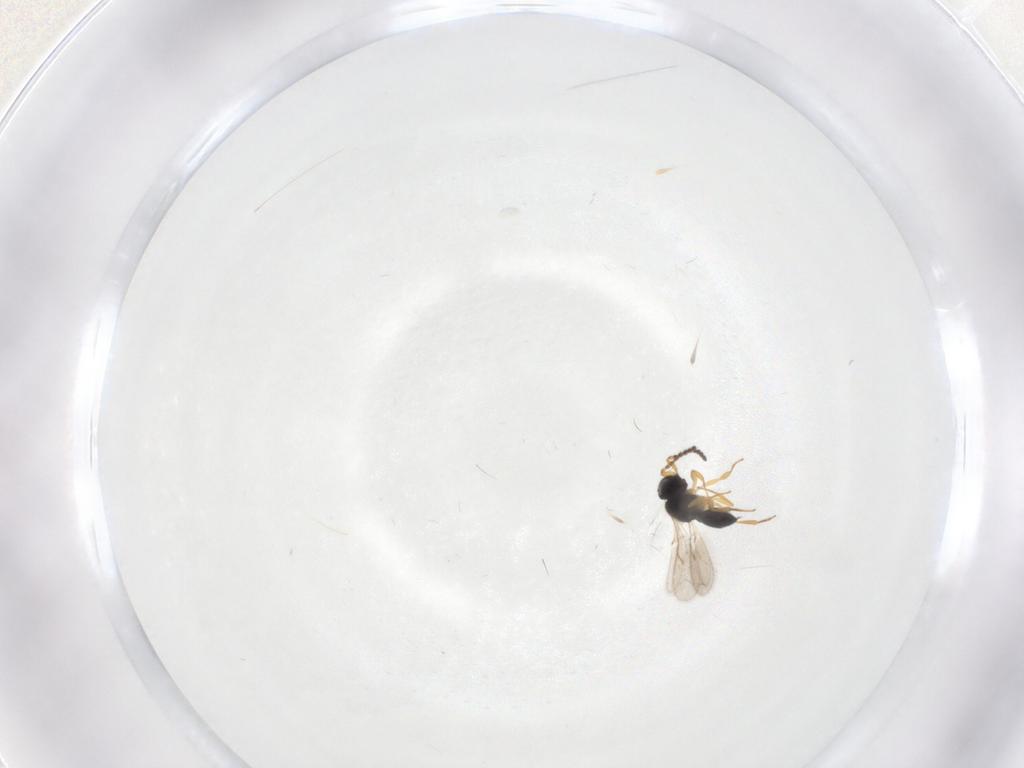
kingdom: Animalia
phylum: Arthropoda
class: Insecta
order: Hymenoptera
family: Scelionidae
